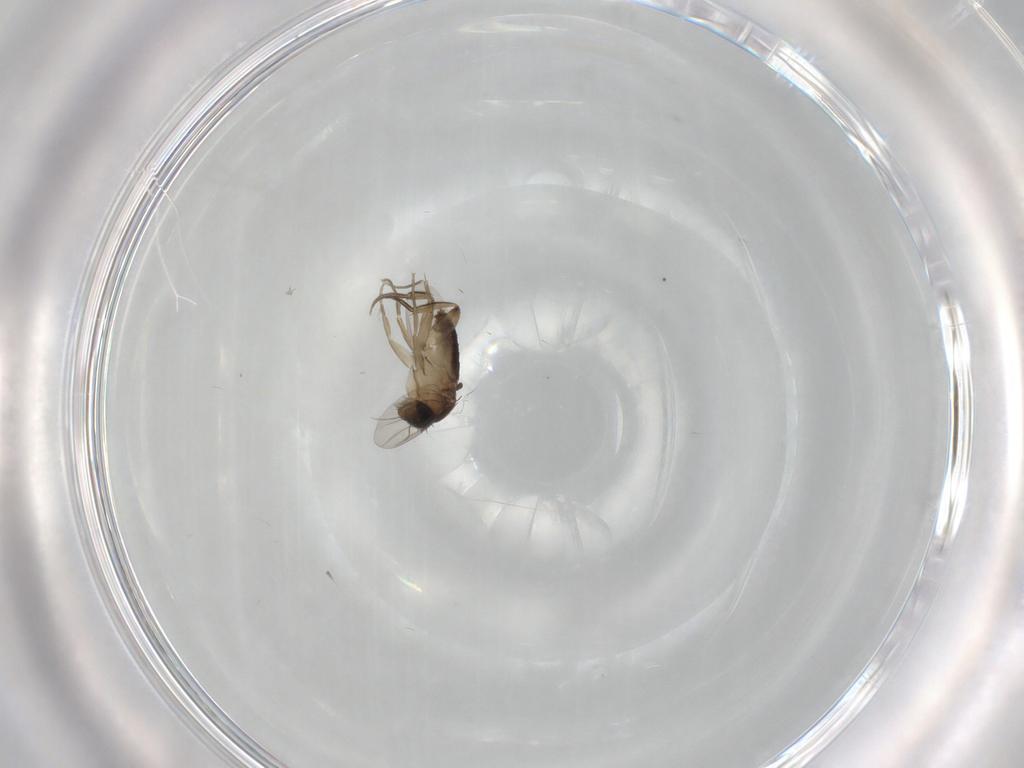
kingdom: Animalia
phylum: Arthropoda
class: Insecta
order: Diptera
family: Phoridae
